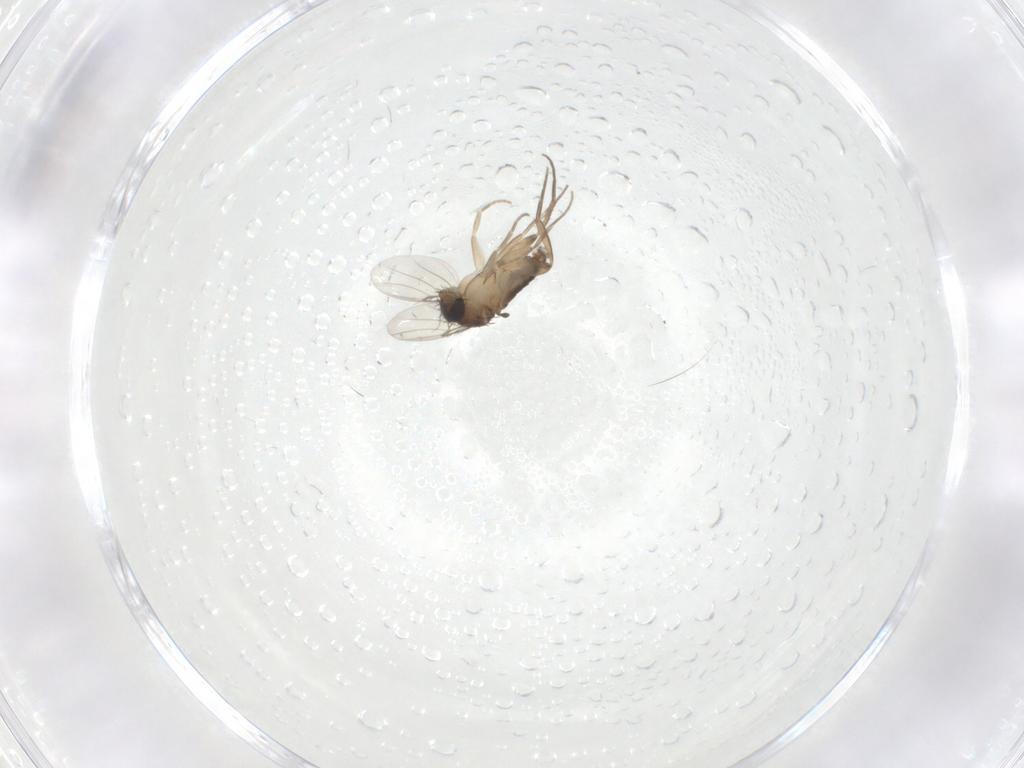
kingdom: Animalia
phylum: Arthropoda
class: Insecta
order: Diptera
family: Phoridae
